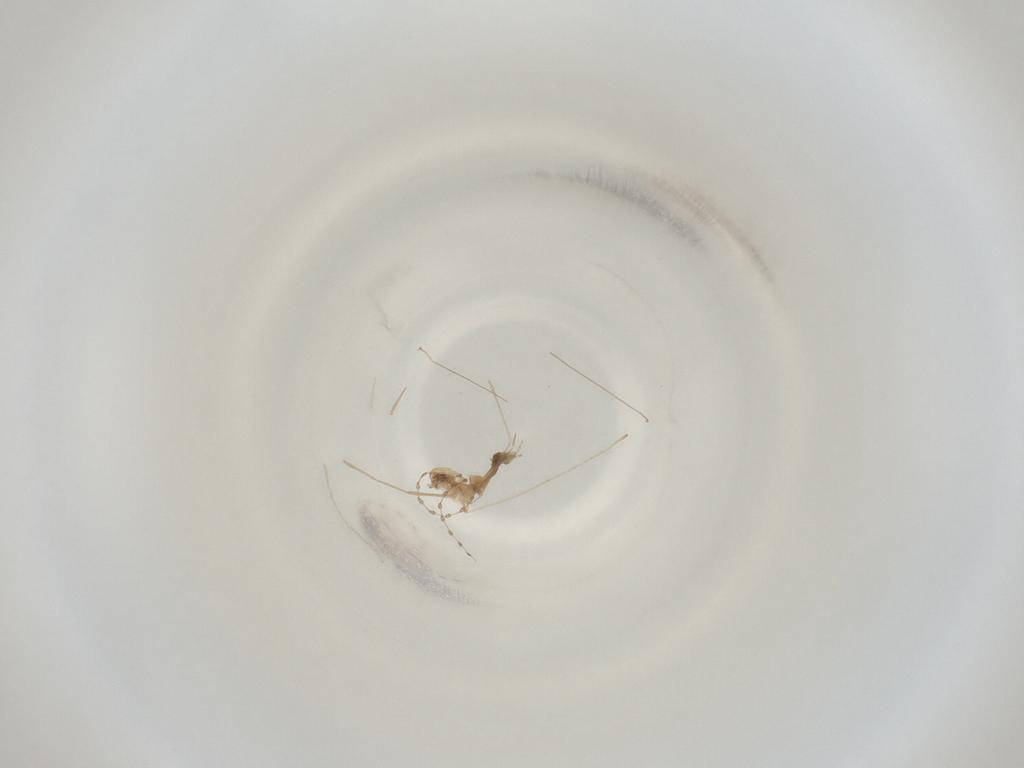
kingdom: Animalia
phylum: Arthropoda
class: Insecta
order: Diptera
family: Cecidomyiidae
